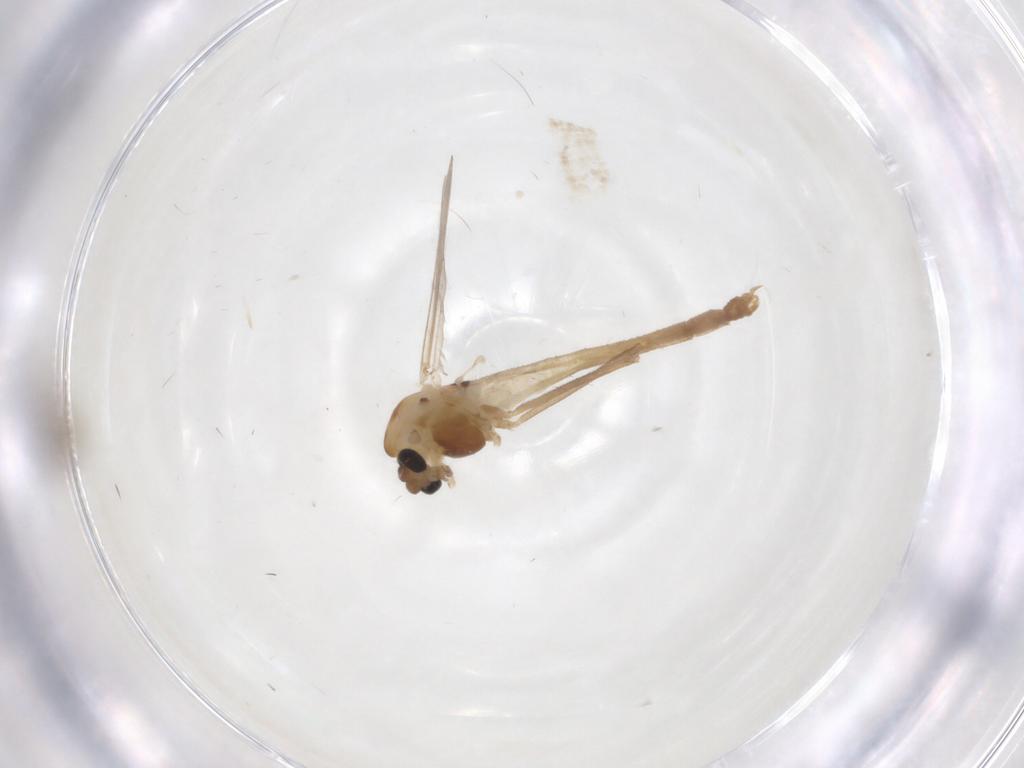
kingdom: Animalia
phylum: Arthropoda
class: Insecta
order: Diptera
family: Chironomidae
